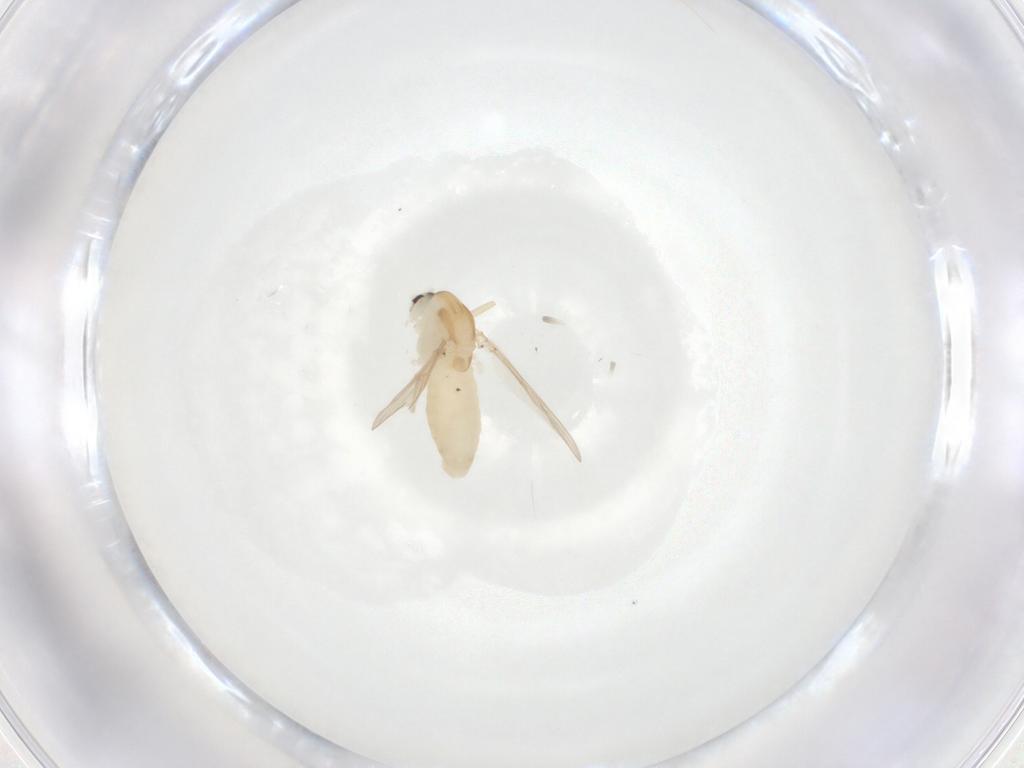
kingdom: Animalia
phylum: Arthropoda
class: Insecta
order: Diptera
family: Chironomidae
